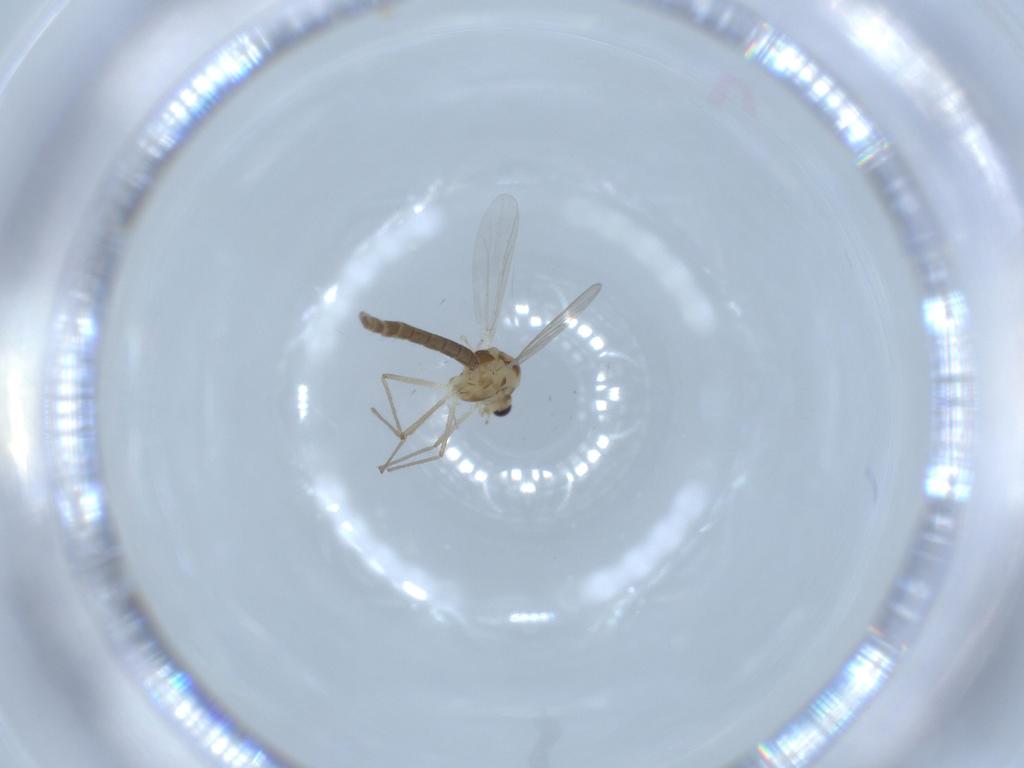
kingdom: Animalia
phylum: Arthropoda
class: Insecta
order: Diptera
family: Chironomidae
